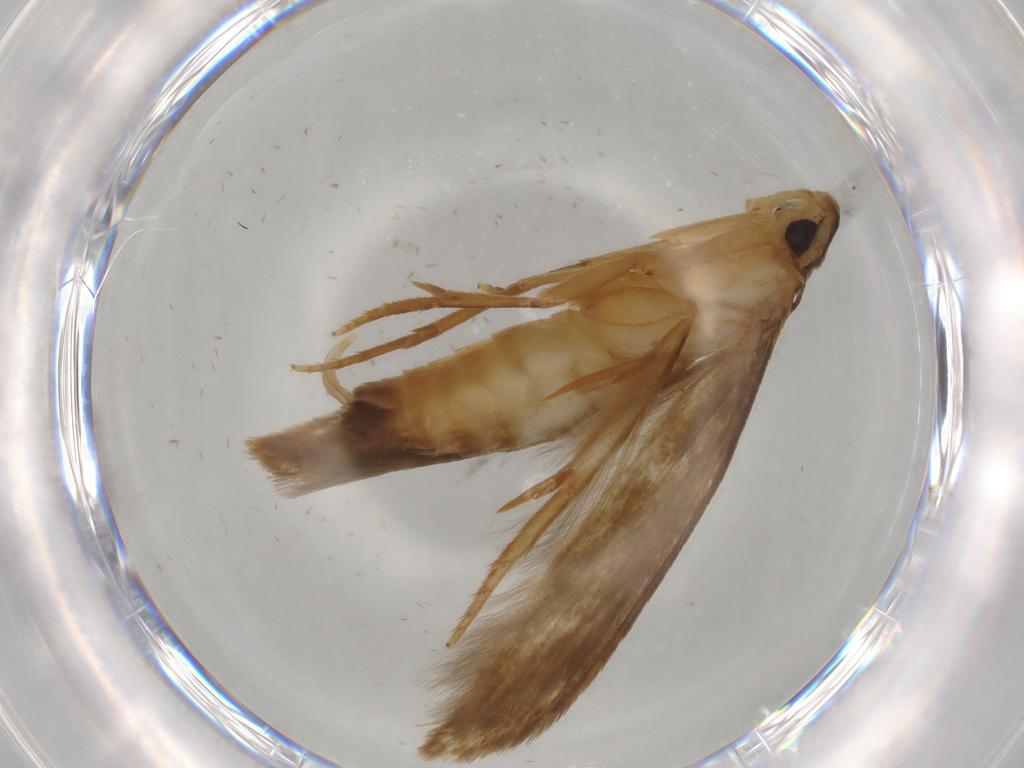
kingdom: Animalia
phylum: Arthropoda
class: Insecta
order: Lepidoptera
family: Tineidae
